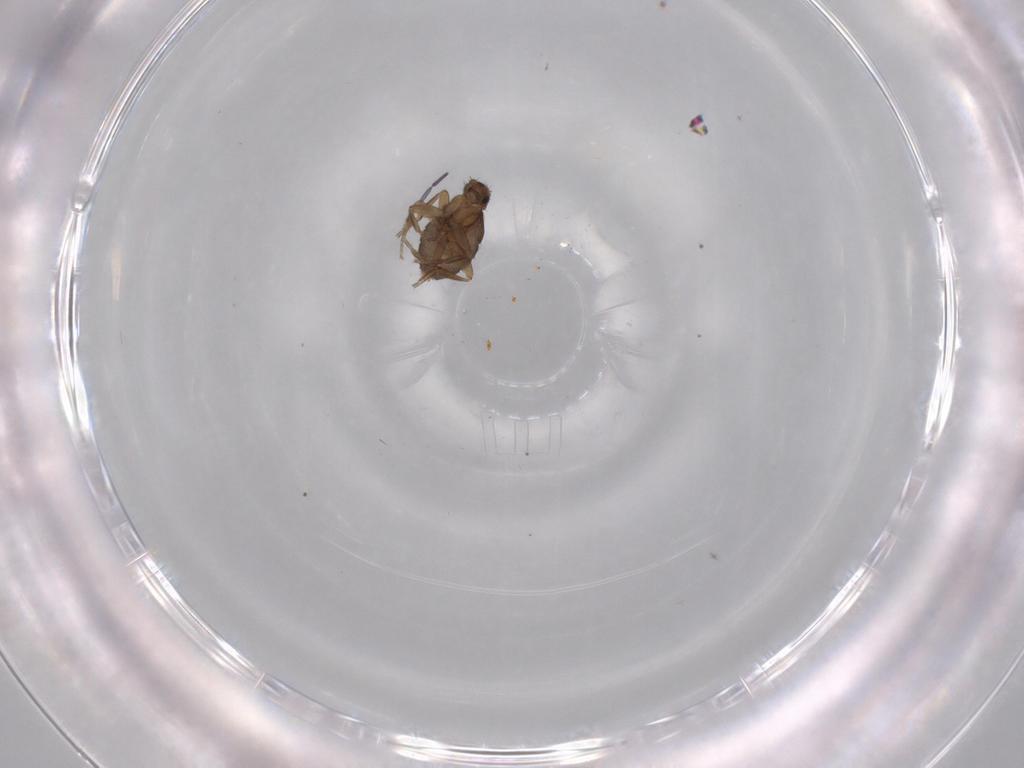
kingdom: Animalia
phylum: Arthropoda
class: Insecta
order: Diptera
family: Phoridae
